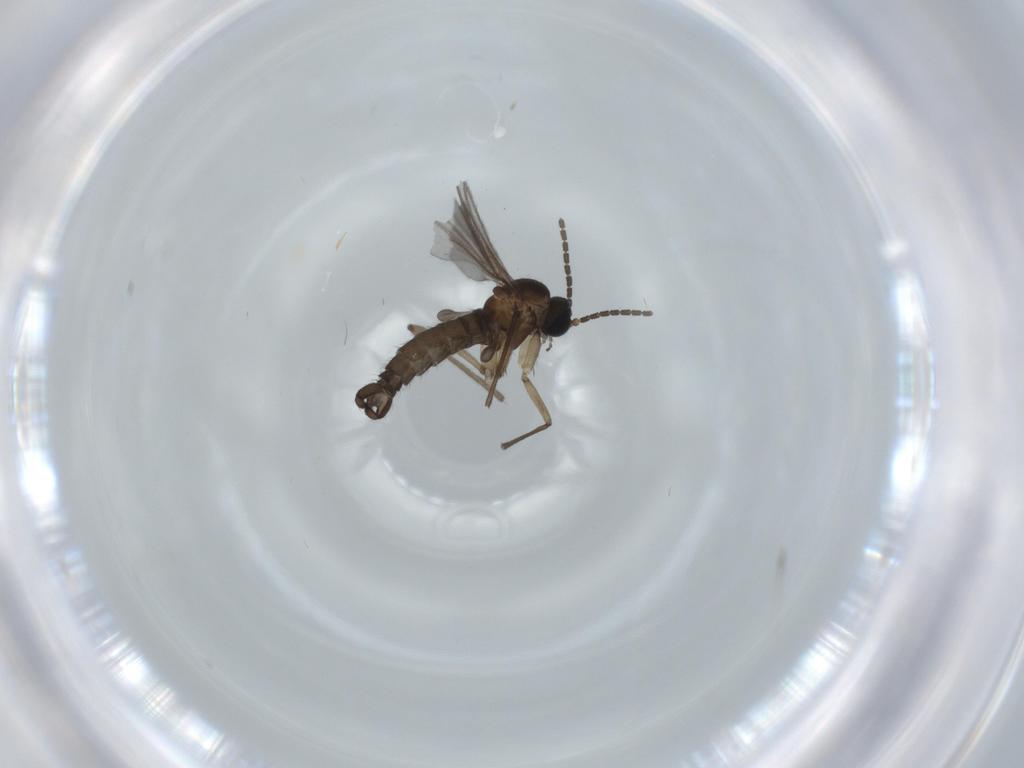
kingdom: Animalia
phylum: Arthropoda
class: Insecta
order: Diptera
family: Sciaridae
